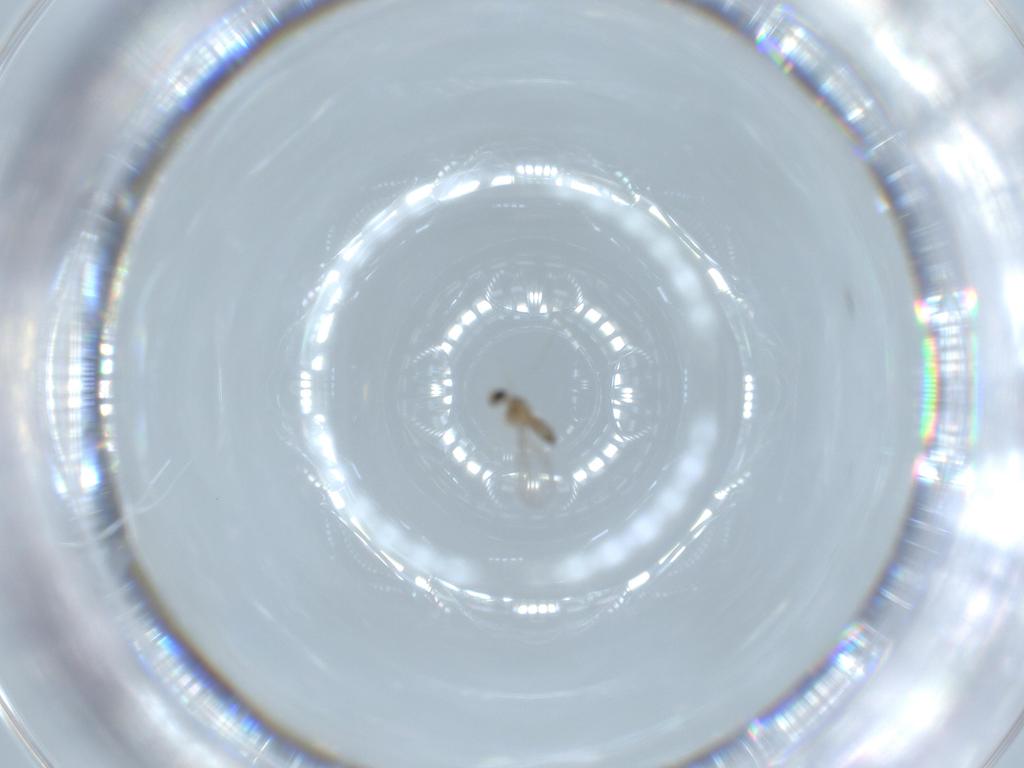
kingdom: Animalia
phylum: Arthropoda
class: Insecta
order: Diptera
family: Cecidomyiidae
